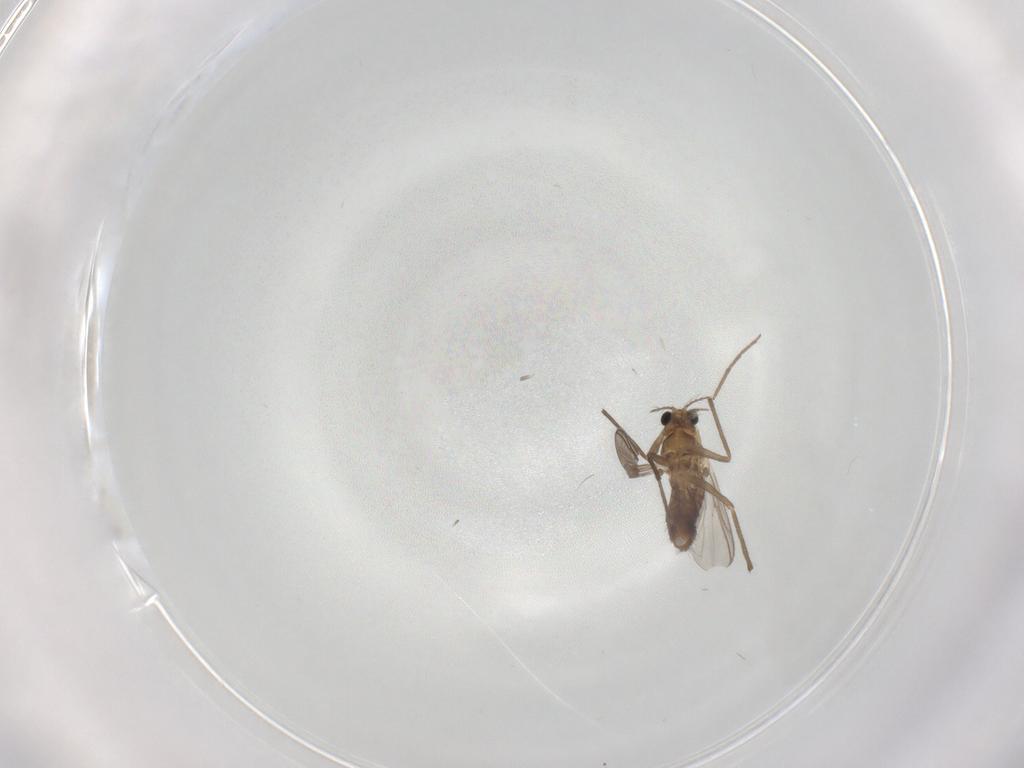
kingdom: Animalia
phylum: Arthropoda
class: Insecta
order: Diptera
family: Chironomidae
